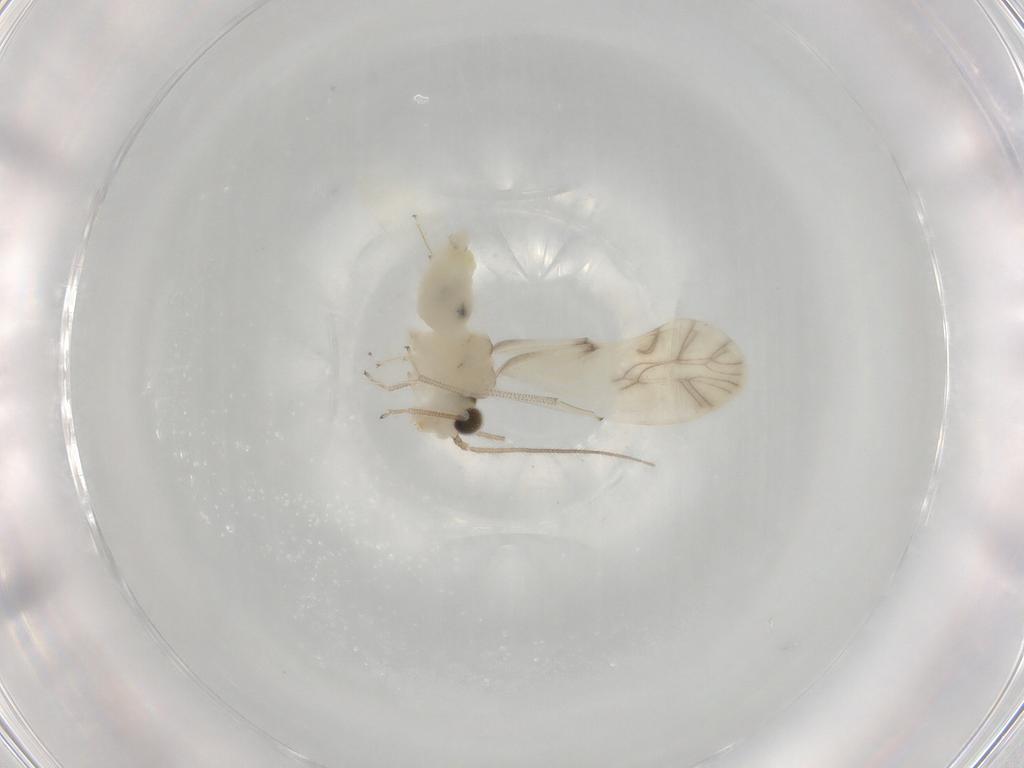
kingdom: Animalia
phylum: Arthropoda
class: Insecta
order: Psocodea
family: Caeciliusidae
